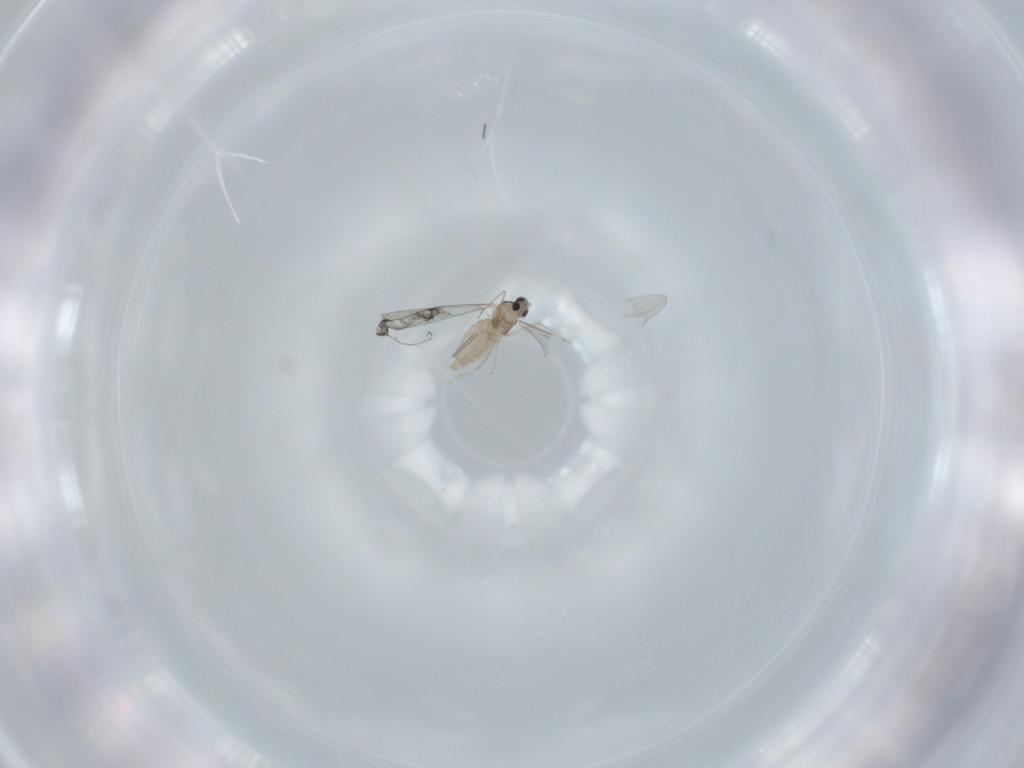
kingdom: Animalia
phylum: Arthropoda
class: Insecta
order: Diptera
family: Cecidomyiidae
